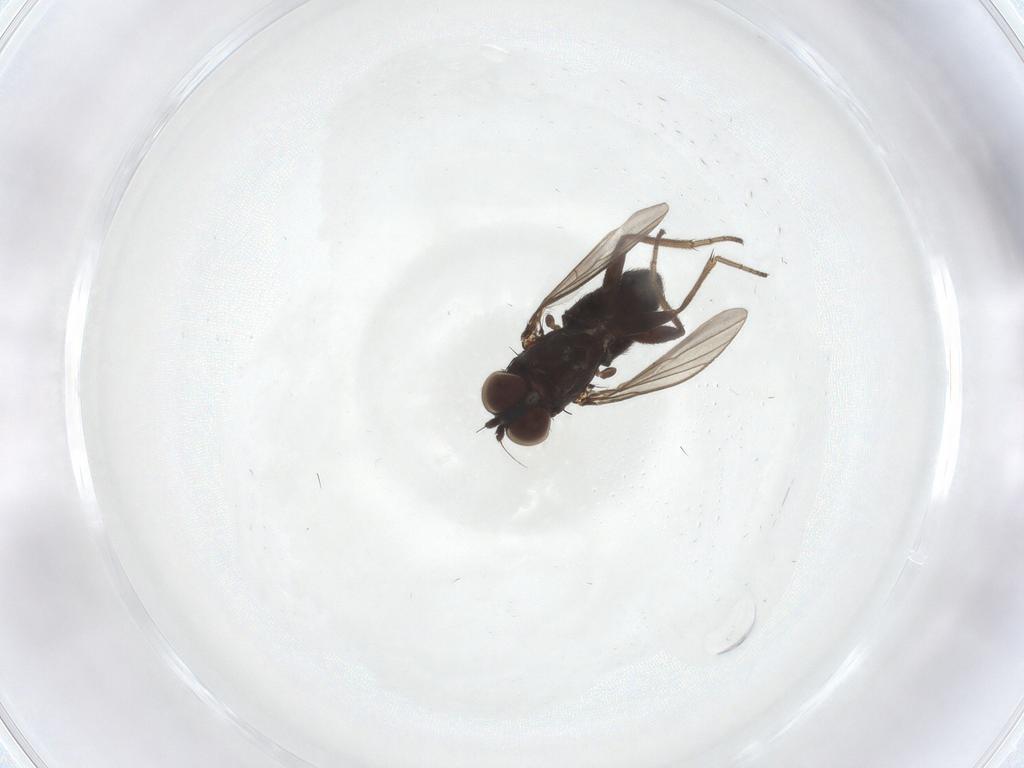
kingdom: Animalia
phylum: Arthropoda
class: Insecta
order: Diptera
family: Dolichopodidae
